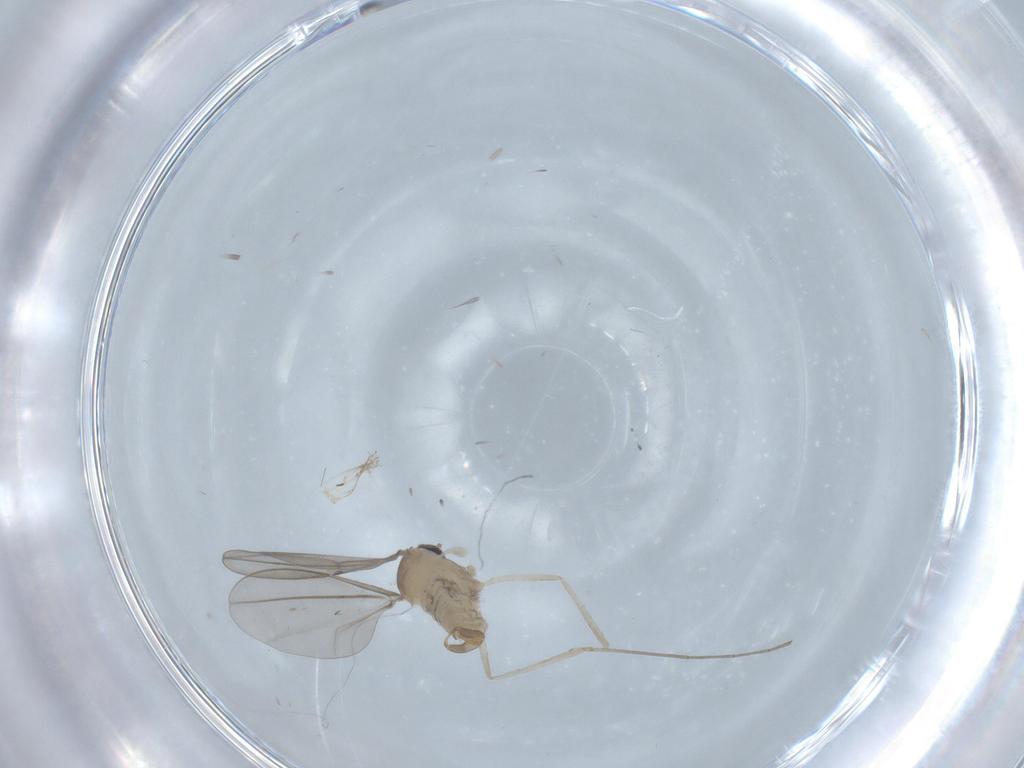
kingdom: Animalia
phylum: Arthropoda
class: Insecta
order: Diptera
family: Cecidomyiidae
